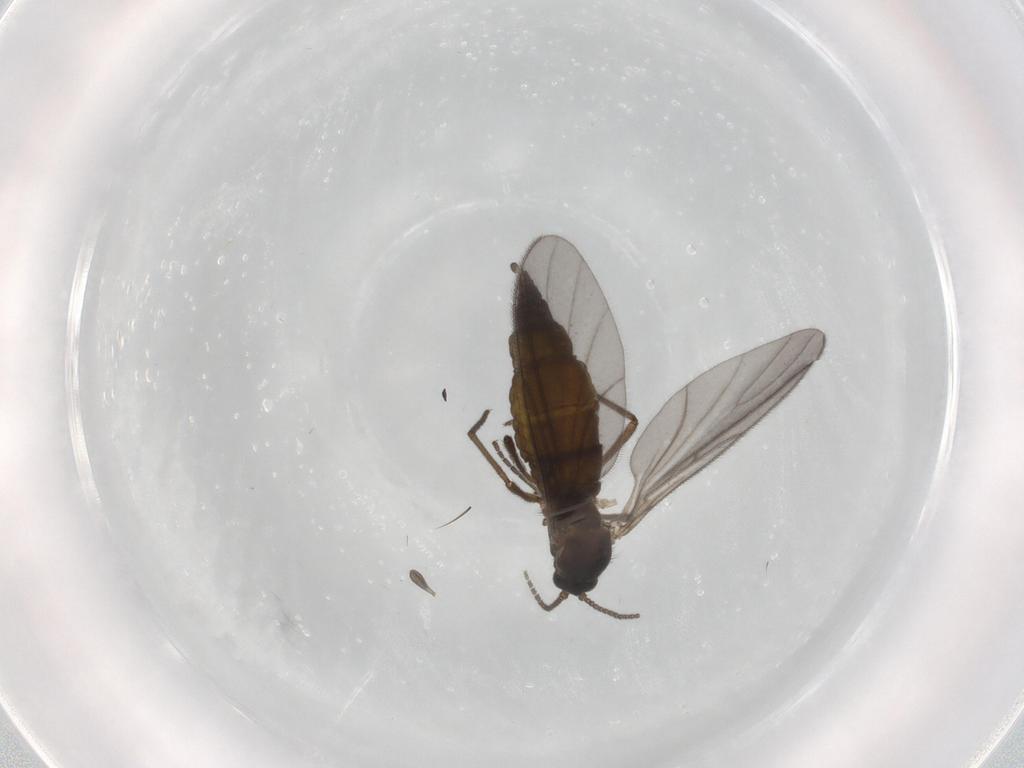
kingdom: Animalia
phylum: Arthropoda
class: Insecta
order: Diptera
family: Sciaridae
